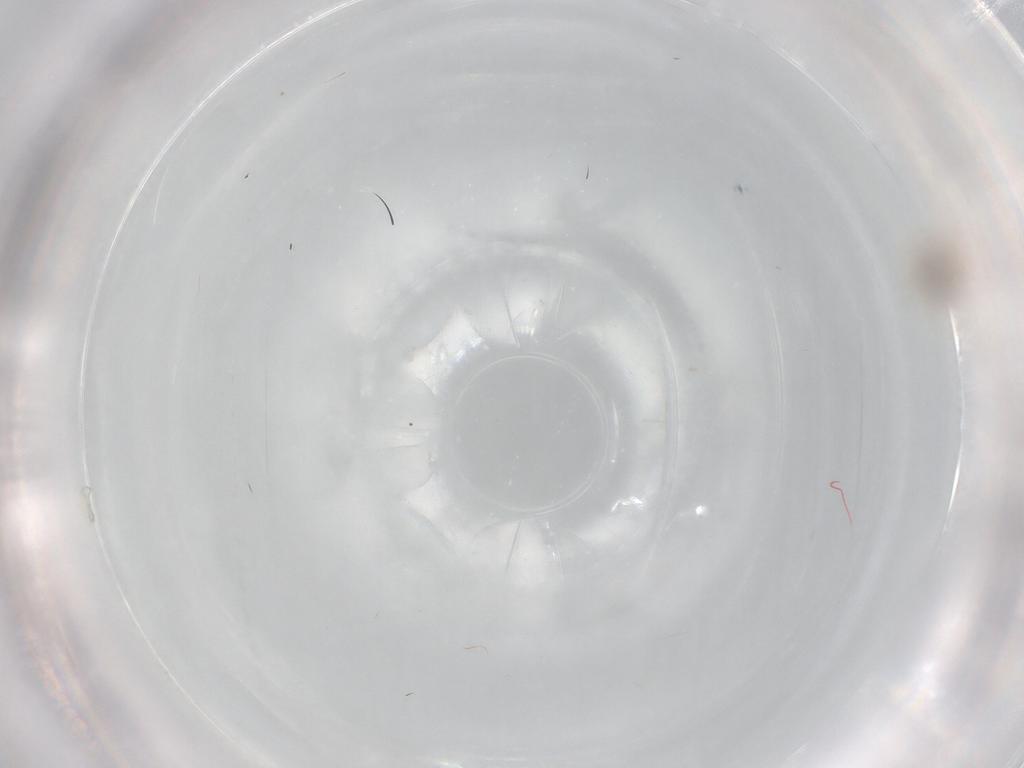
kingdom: Animalia
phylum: Arthropoda
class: Insecta
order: Diptera
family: Cecidomyiidae
